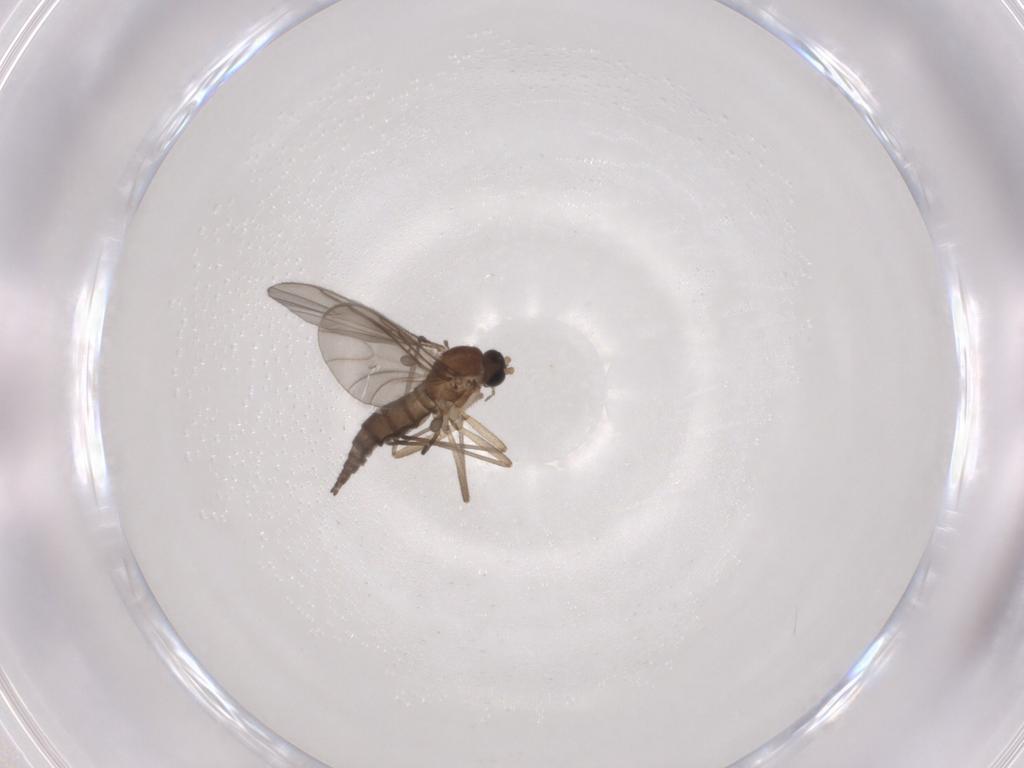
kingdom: Animalia
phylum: Arthropoda
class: Insecta
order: Diptera
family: Sciaridae
